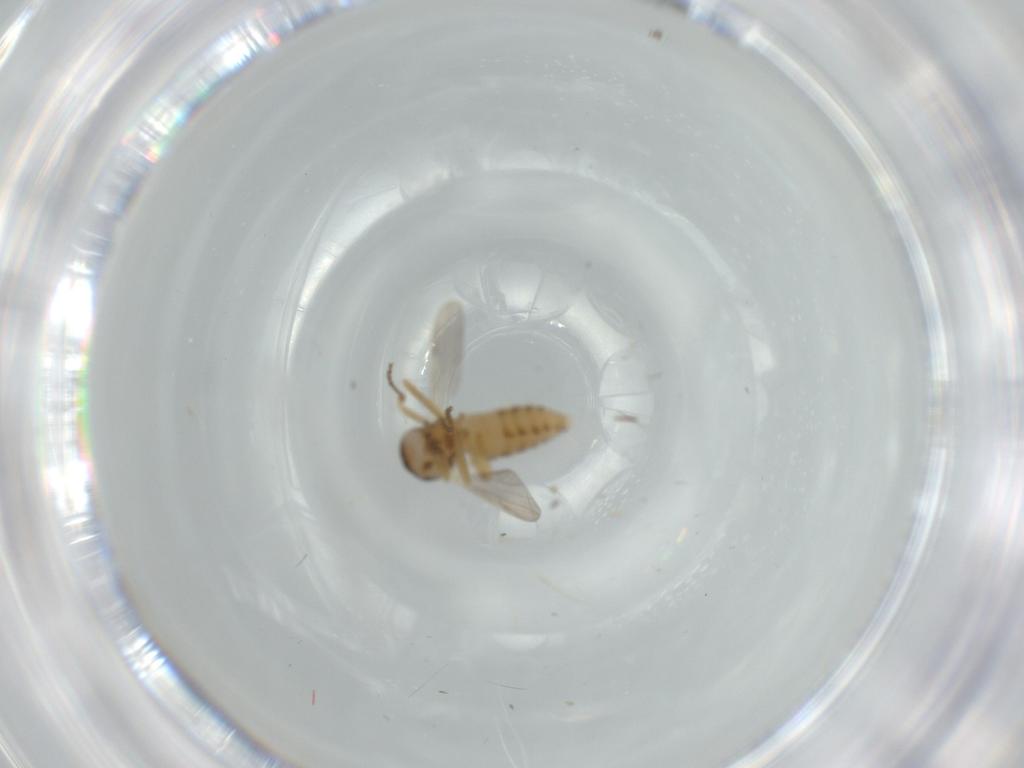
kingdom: Animalia
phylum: Arthropoda
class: Insecta
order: Diptera
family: Ceratopogonidae
